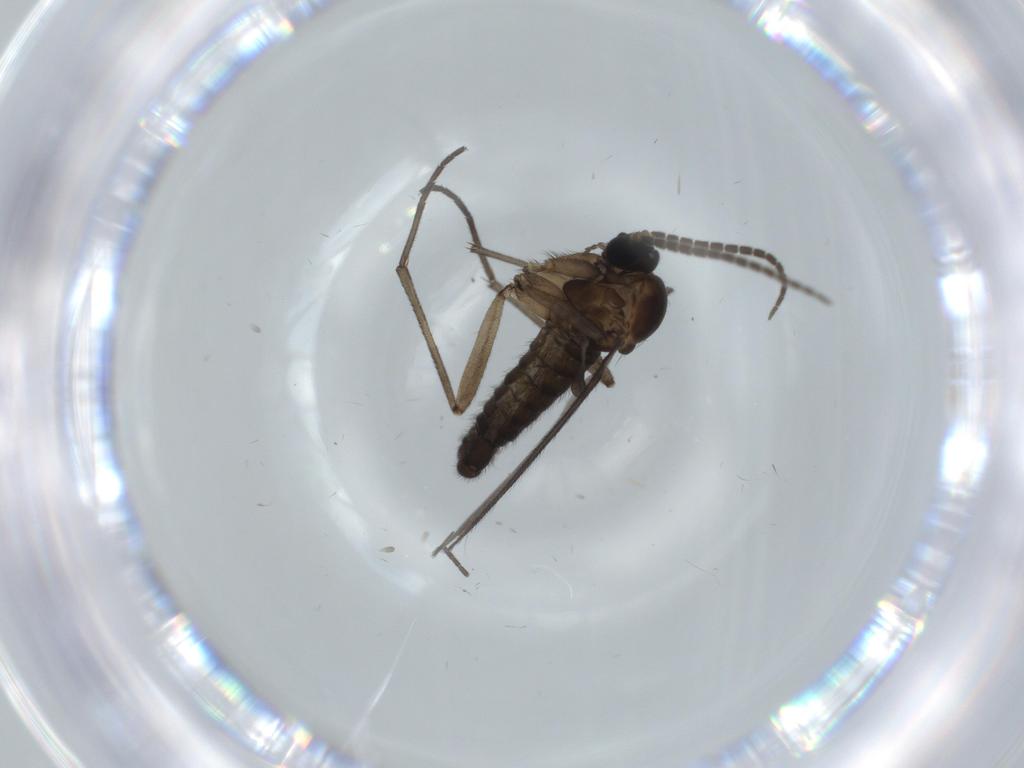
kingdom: Animalia
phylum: Arthropoda
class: Insecta
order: Diptera
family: Sciaridae
